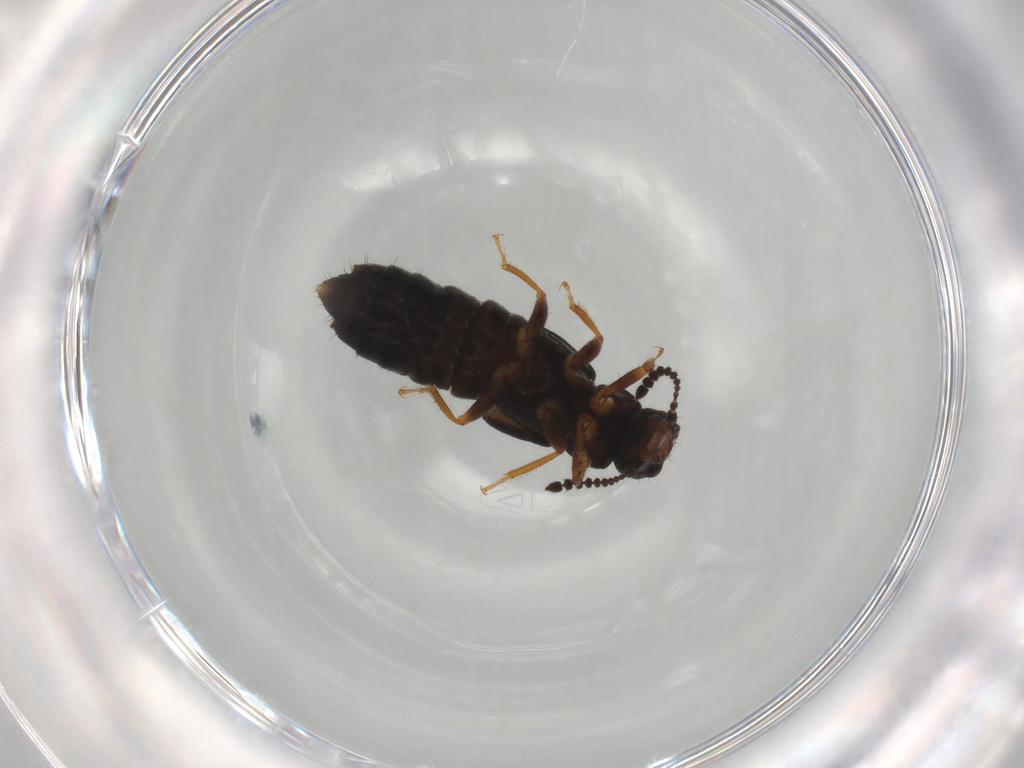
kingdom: Animalia
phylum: Arthropoda
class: Insecta
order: Coleoptera
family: Staphylinidae
